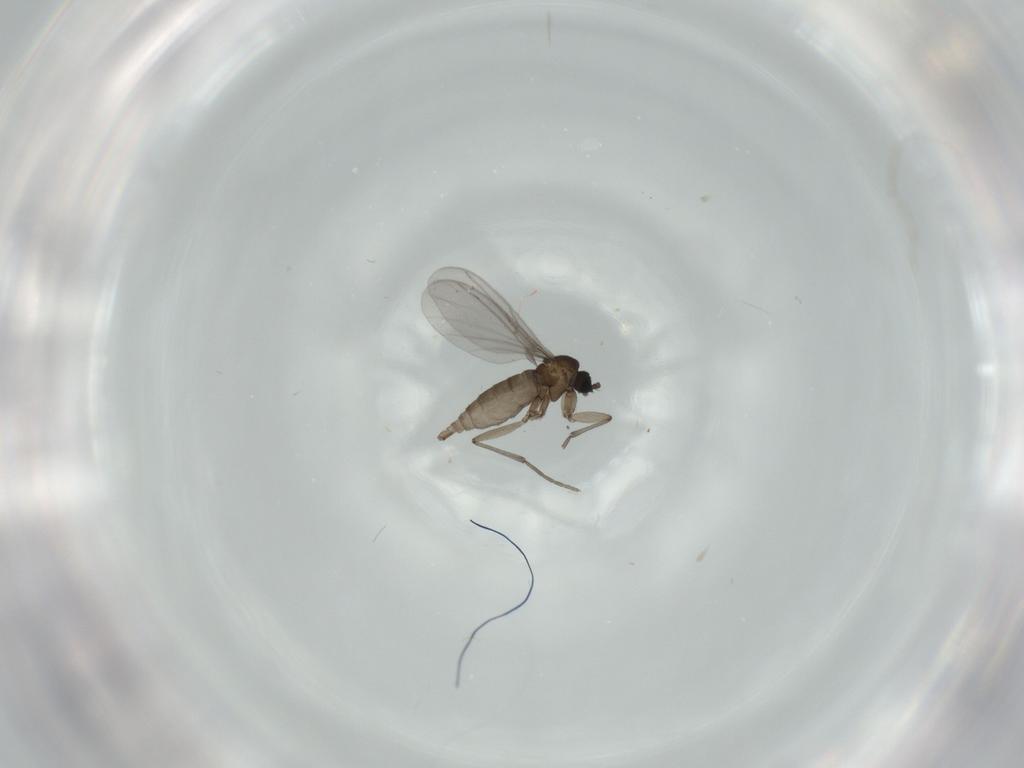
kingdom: Animalia
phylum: Arthropoda
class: Insecta
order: Diptera
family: Sciaridae
